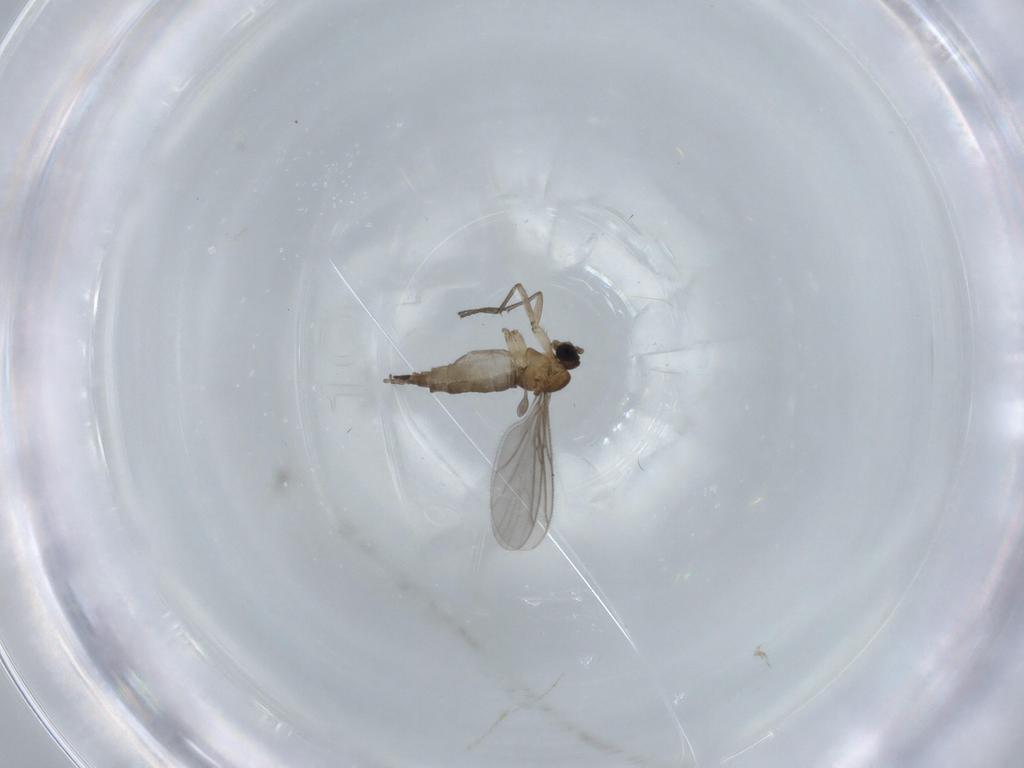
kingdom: Animalia
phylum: Arthropoda
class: Insecta
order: Diptera
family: Sciaridae
